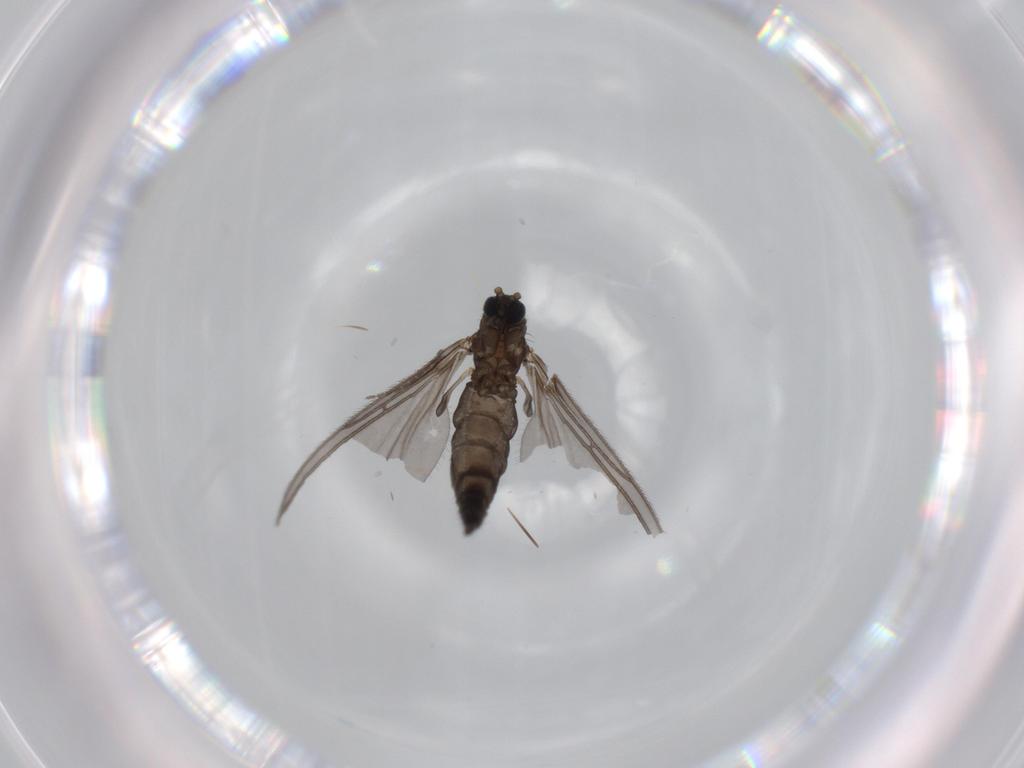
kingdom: Animalia
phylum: Arthropoda
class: Insecta
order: Diptera
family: Sciaridae
